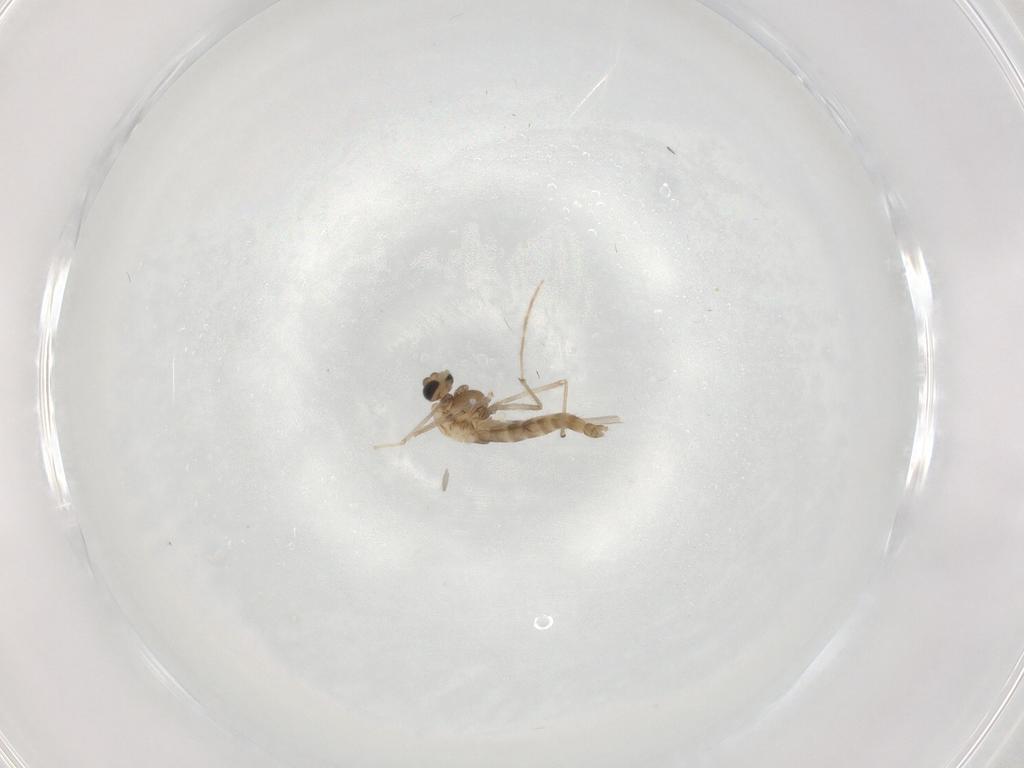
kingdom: Animalia
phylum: Arthropoda
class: Insecta
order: Diptera
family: Chironomidae
